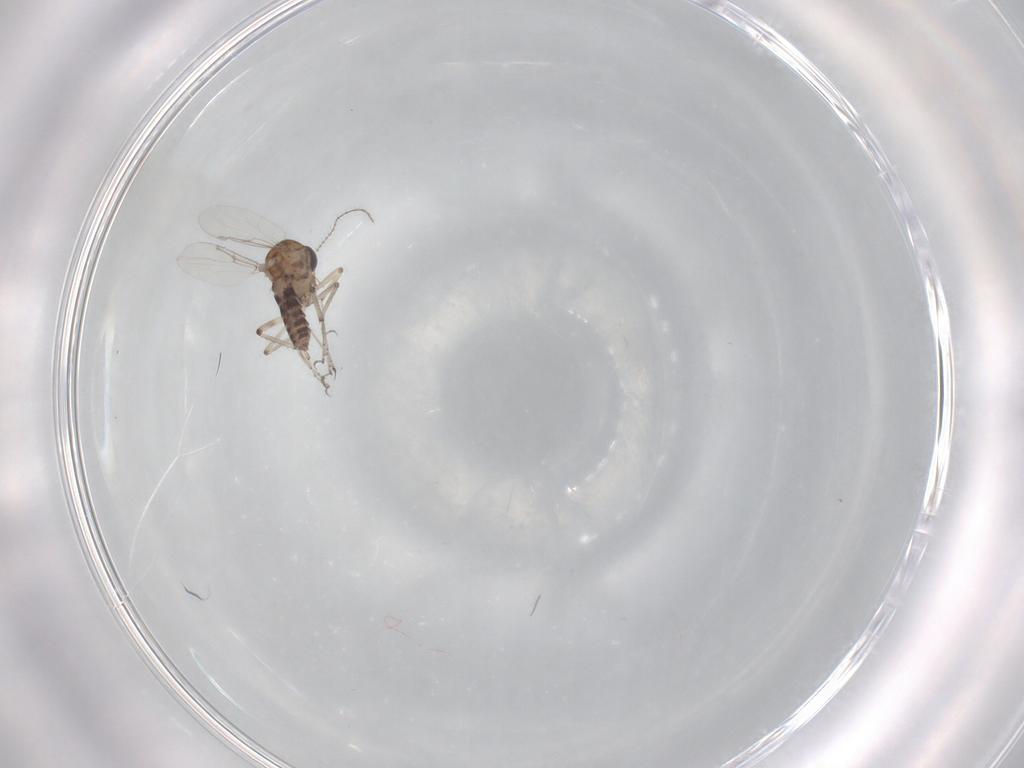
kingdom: Animalia
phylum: Arthropoda
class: Insecta
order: Diptera
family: Ceratopogonidae
